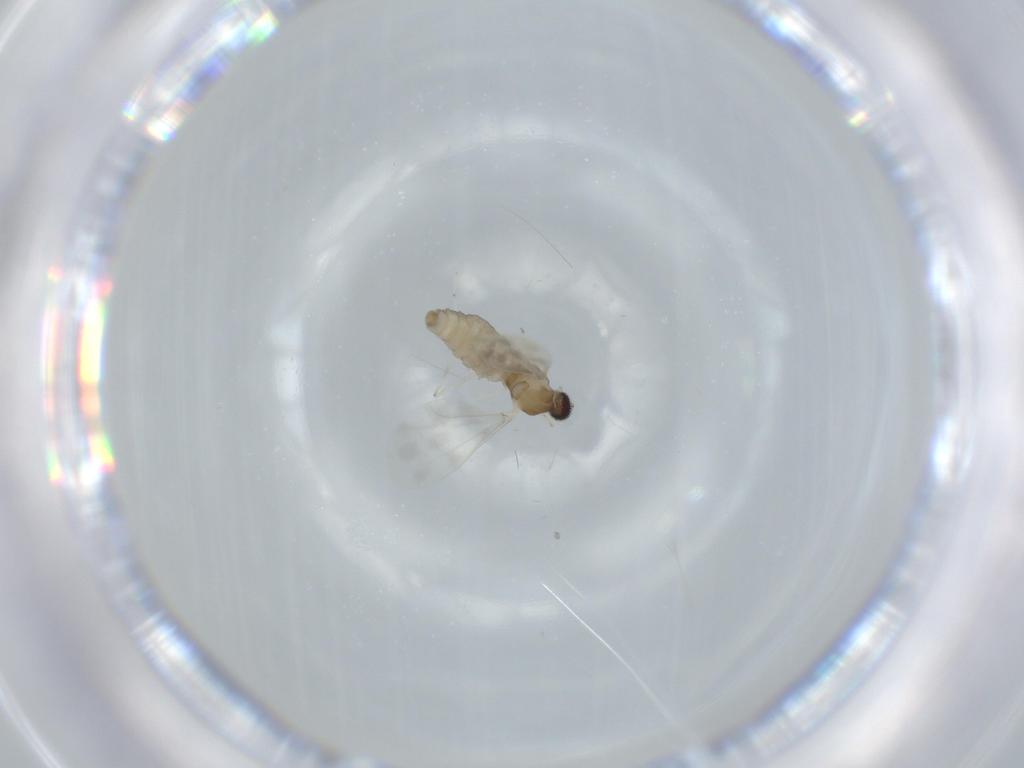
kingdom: Animalia
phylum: Arthropoda
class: Insecta
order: Diptera
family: Cecidomyiidae
